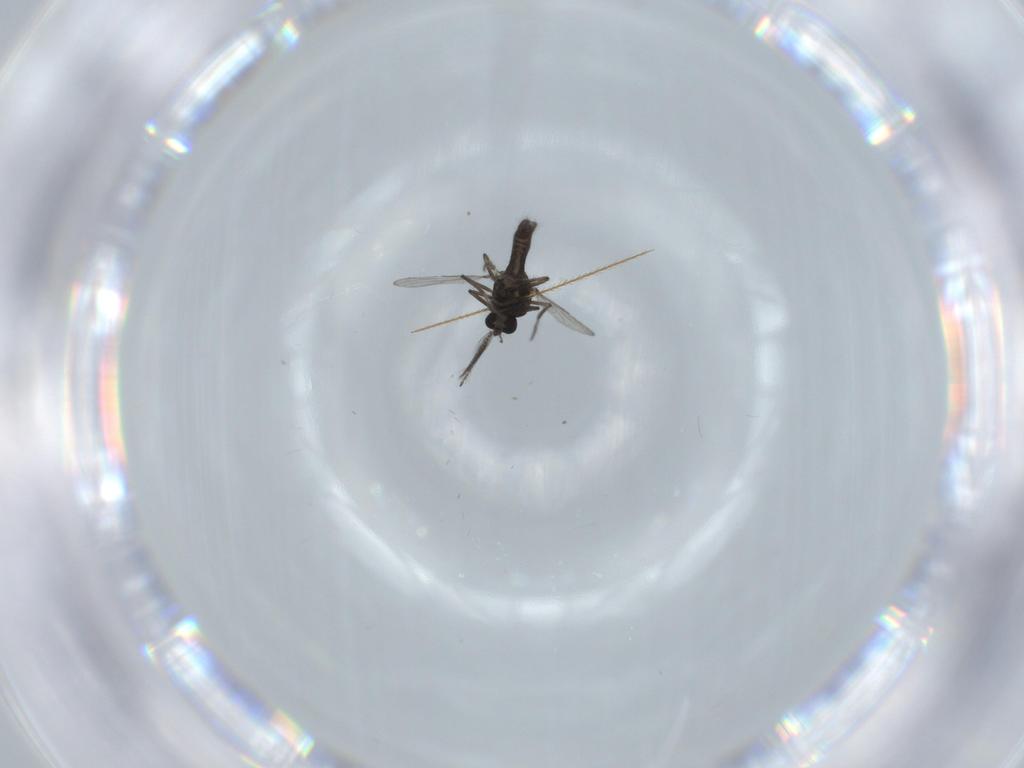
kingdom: Animalia
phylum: Arthropoda
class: Insecta
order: Diptera
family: Ceratopogonidae
